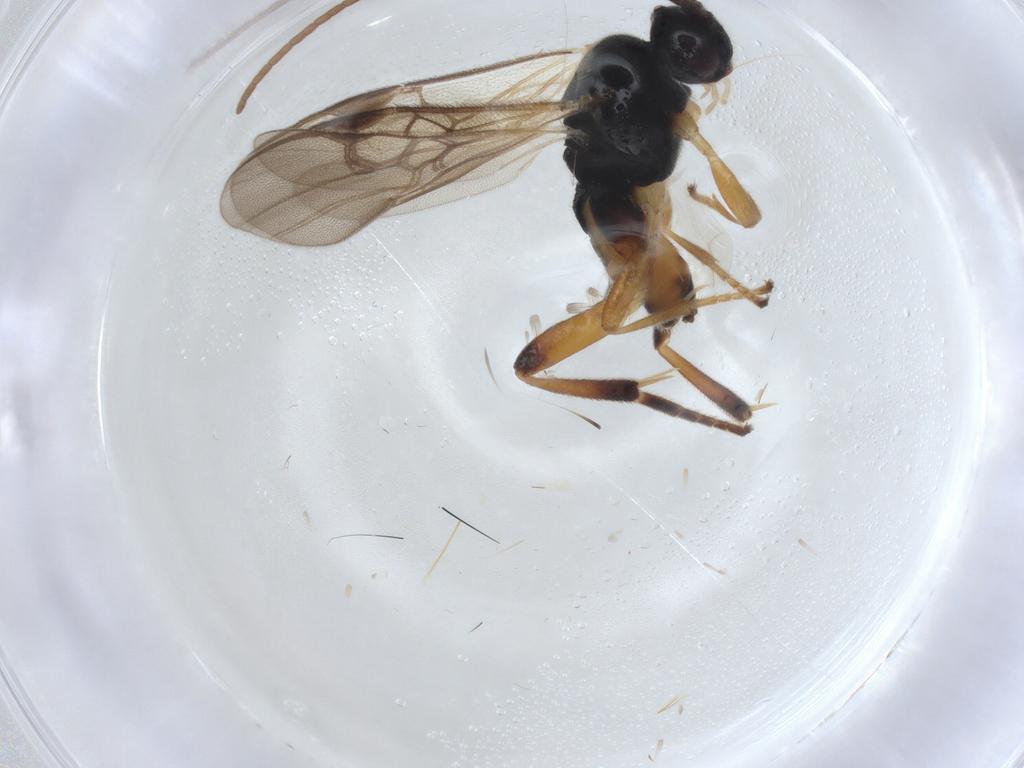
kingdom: Animalia
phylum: Arthropoda
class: Insecta
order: Hymenoptera
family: Braconidae
